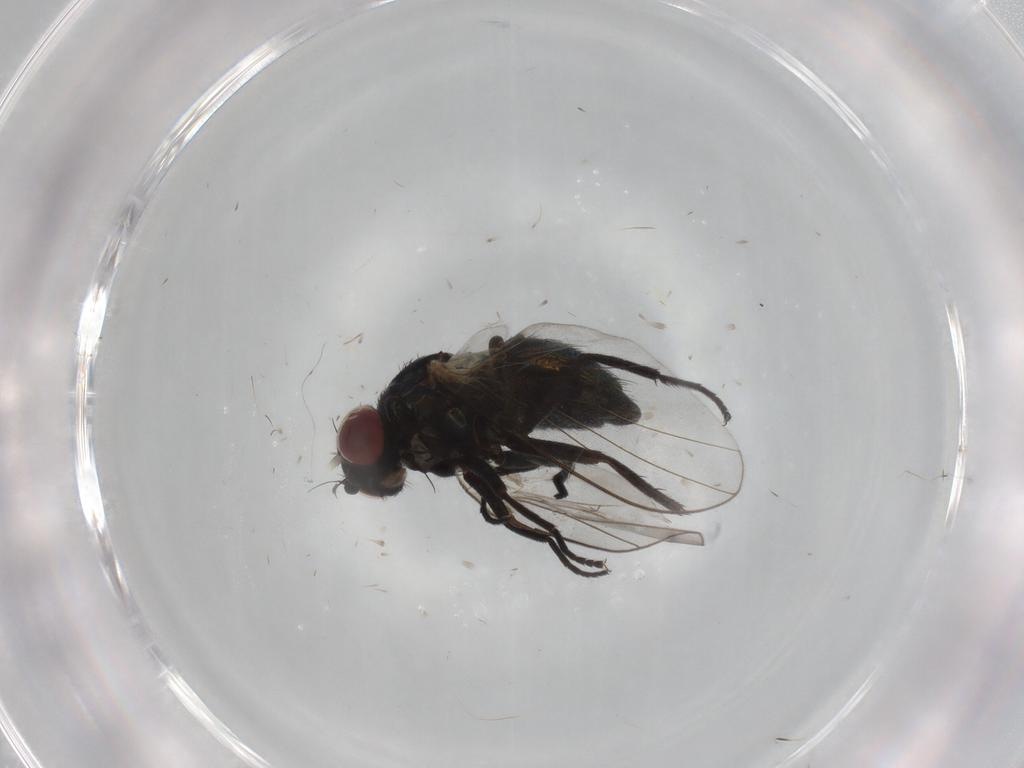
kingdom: Animalia
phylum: Arthropoda
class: Insecta
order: Diptera
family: Agromyzidae
